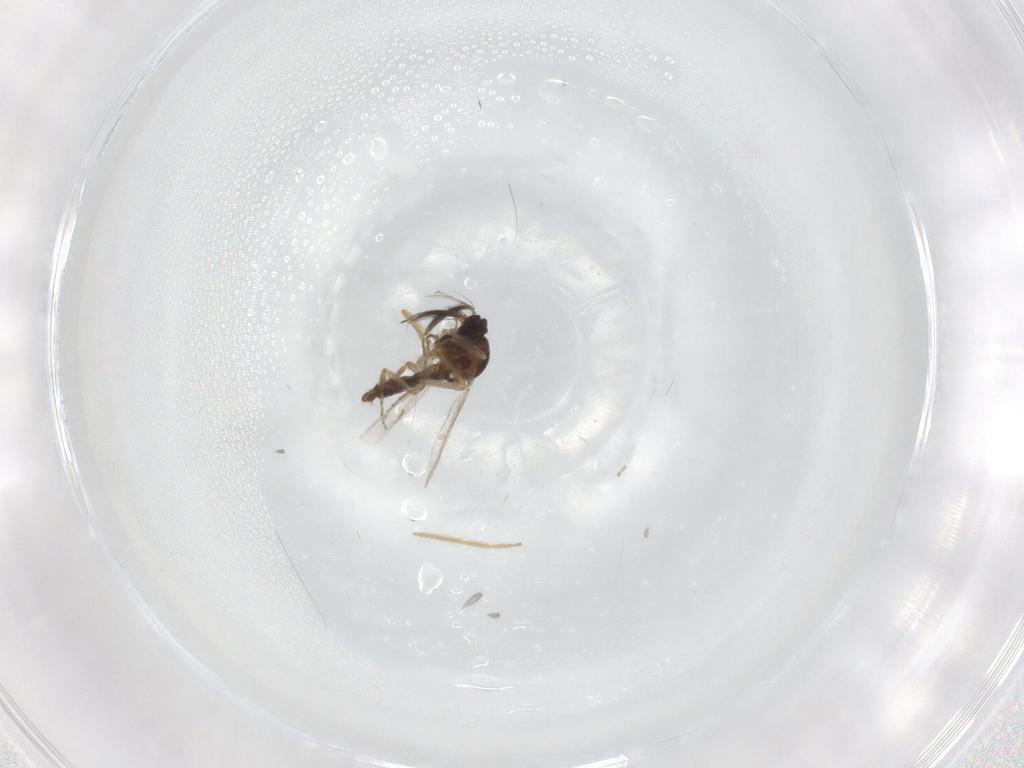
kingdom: Animalia
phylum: Arthropoda
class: Insecta
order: Diptera
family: Ceratopogonidae
